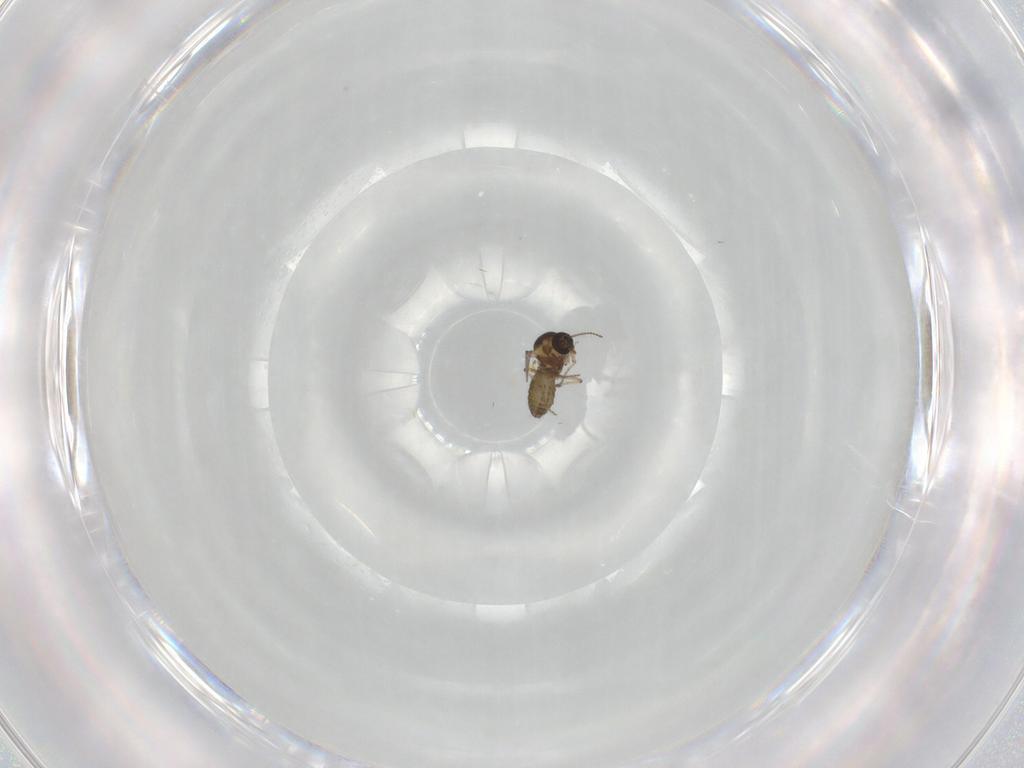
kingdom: Animalia
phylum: Arthropoda
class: Insecta
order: Diptera
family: Ceratopogonidae
